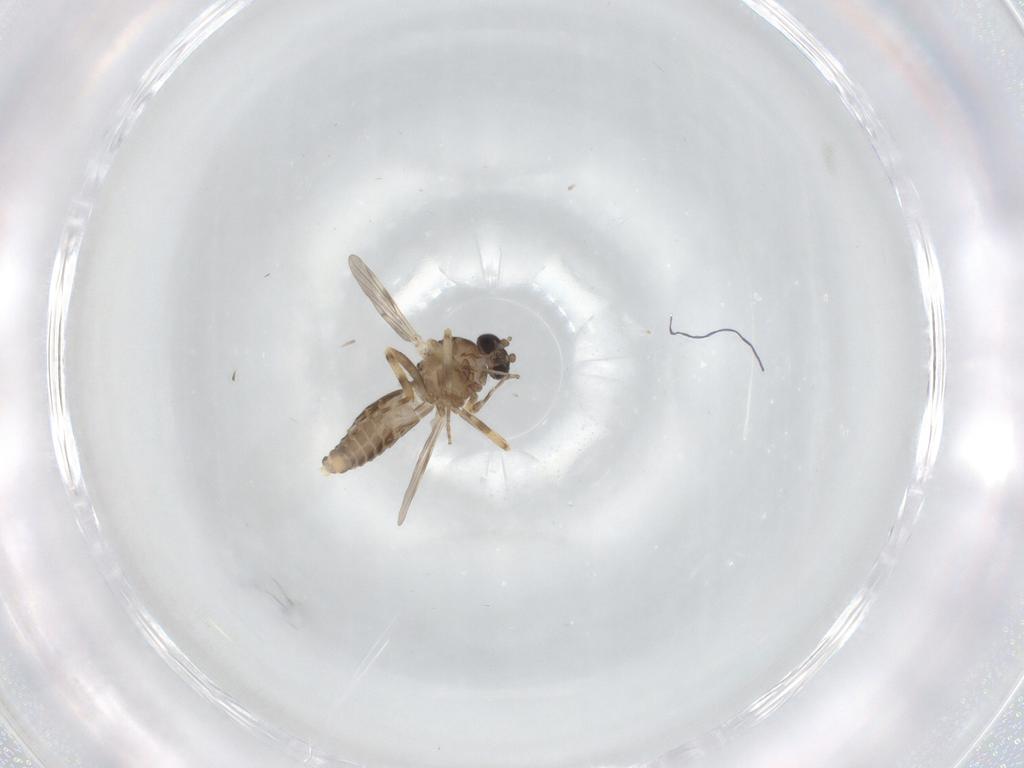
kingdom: Animalia
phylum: Arthropoda
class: Insecta
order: Diptera
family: Ceratopogonidae
